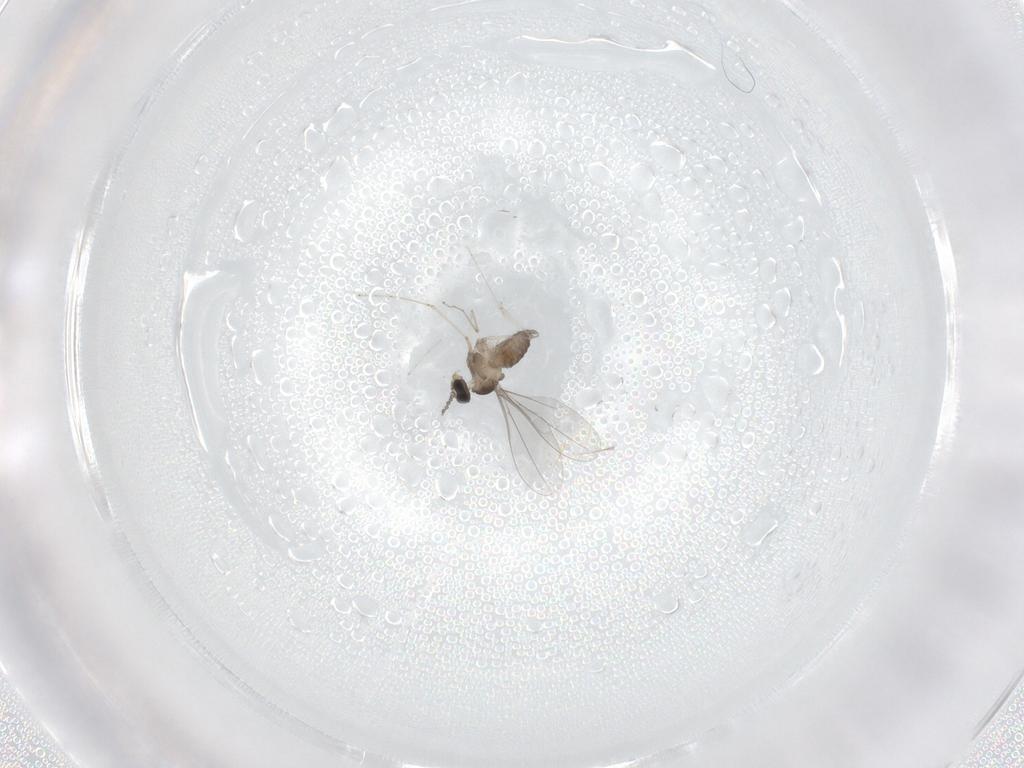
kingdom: Animalia
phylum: Arthropoda
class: Insecta
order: Diptera
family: Cecidomyiidae
